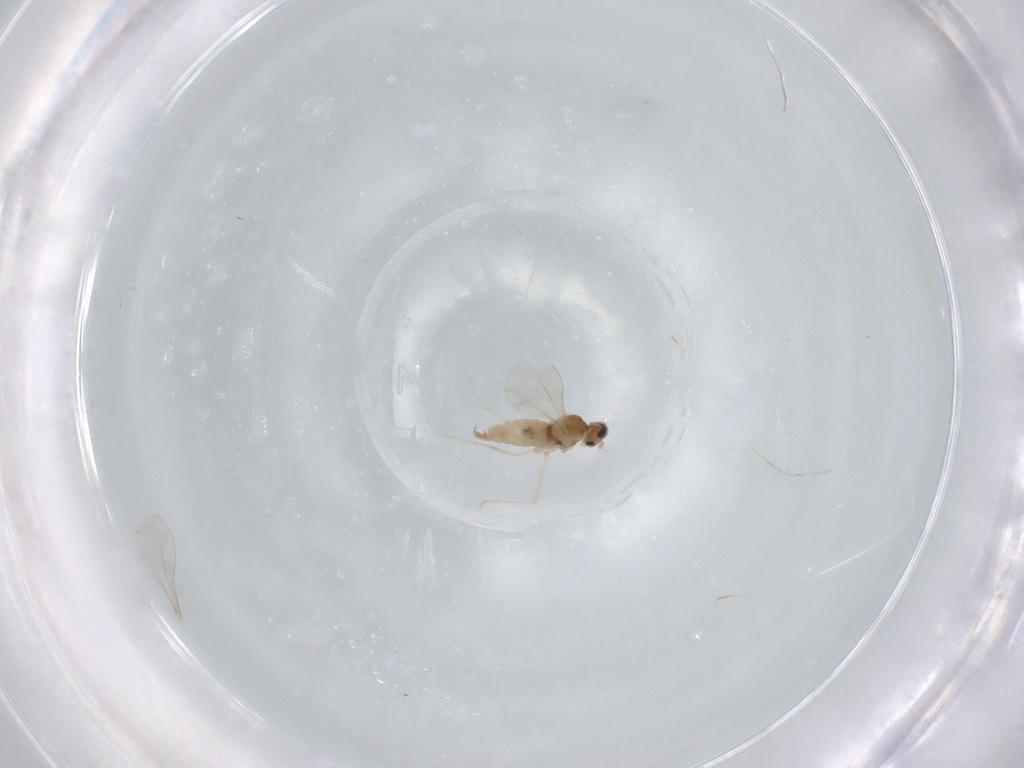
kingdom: Animalia
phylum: Arthropoda
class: Insecta
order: Diptera
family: Cecidomyiidae
